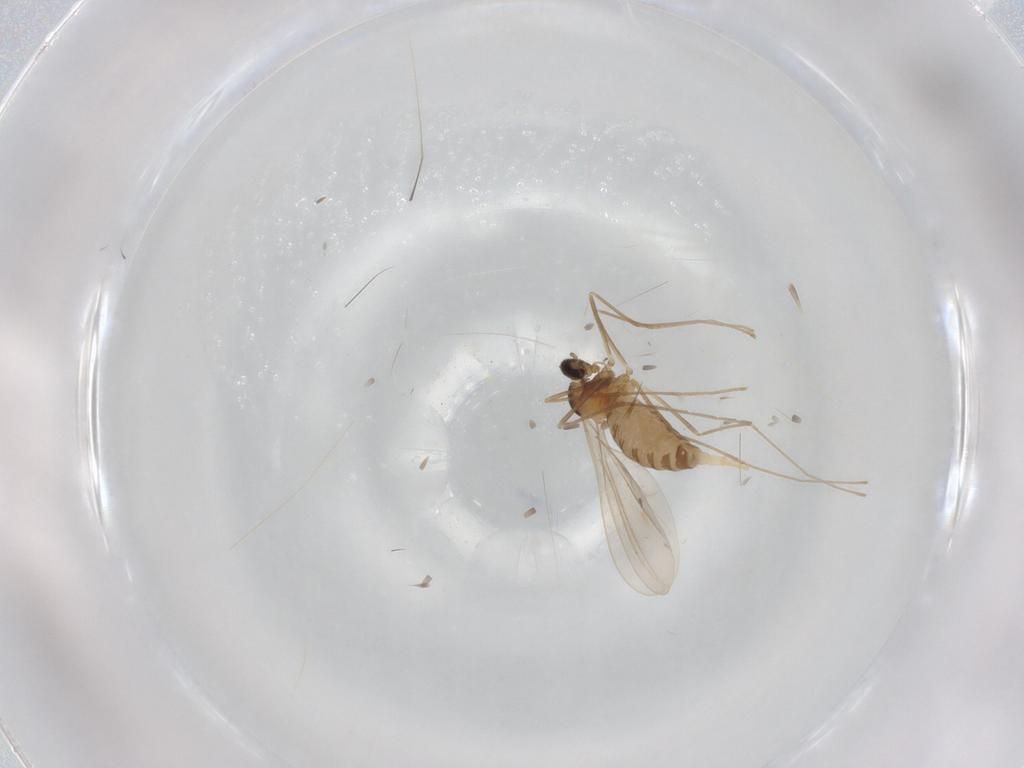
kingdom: Animalia
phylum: Arthropoda
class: Insecta
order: Diptera
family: Cecidomyiidae
